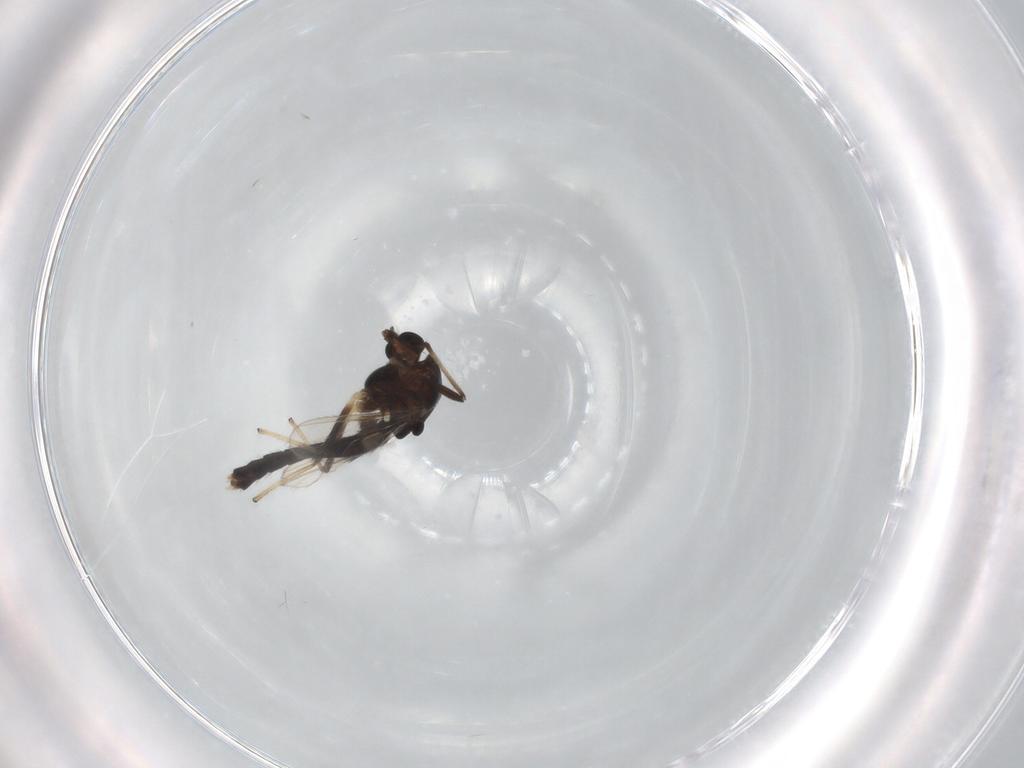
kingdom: Animalia
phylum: Arthropoda
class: Insecta
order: Diptera
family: Chironomidae
